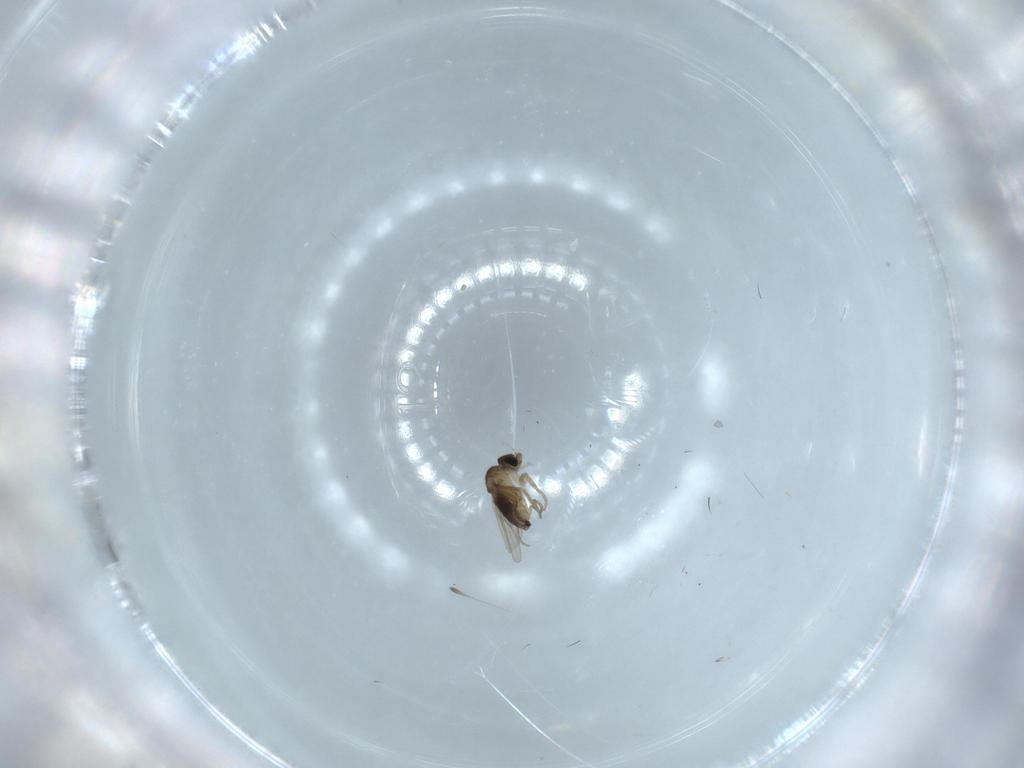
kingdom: Animalia
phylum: Arthropoda
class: Insecta
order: Diptera
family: Phoridae
